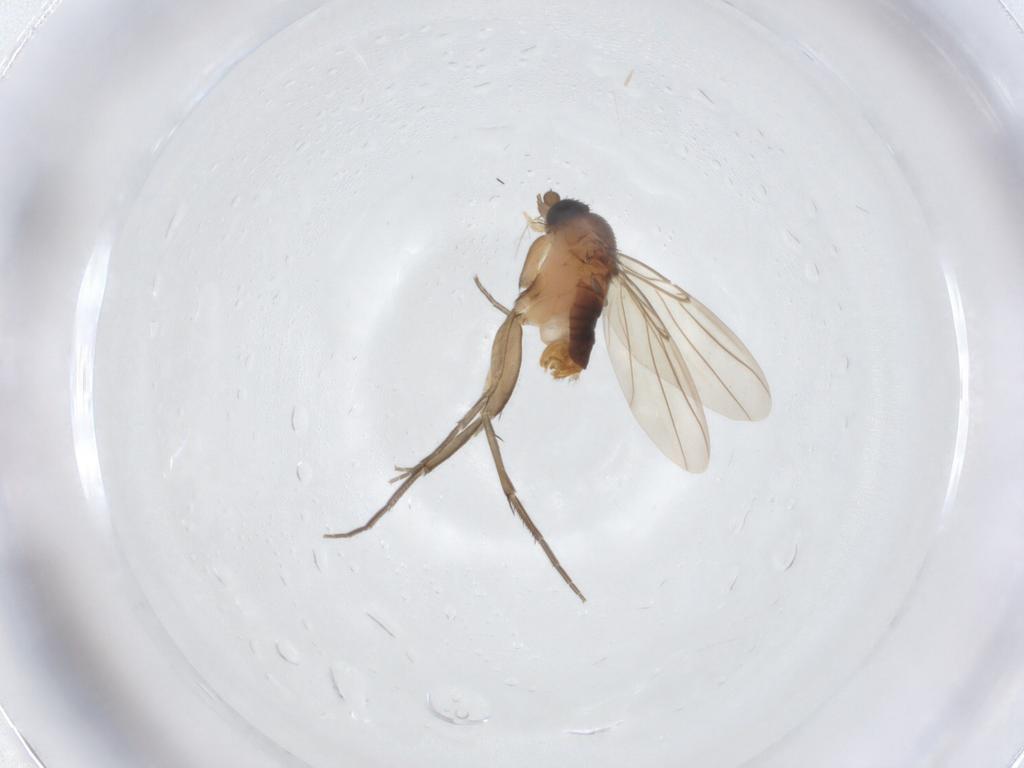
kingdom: Animalia
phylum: Arthropoda
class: Insecta
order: Diptera
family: Phoridae
